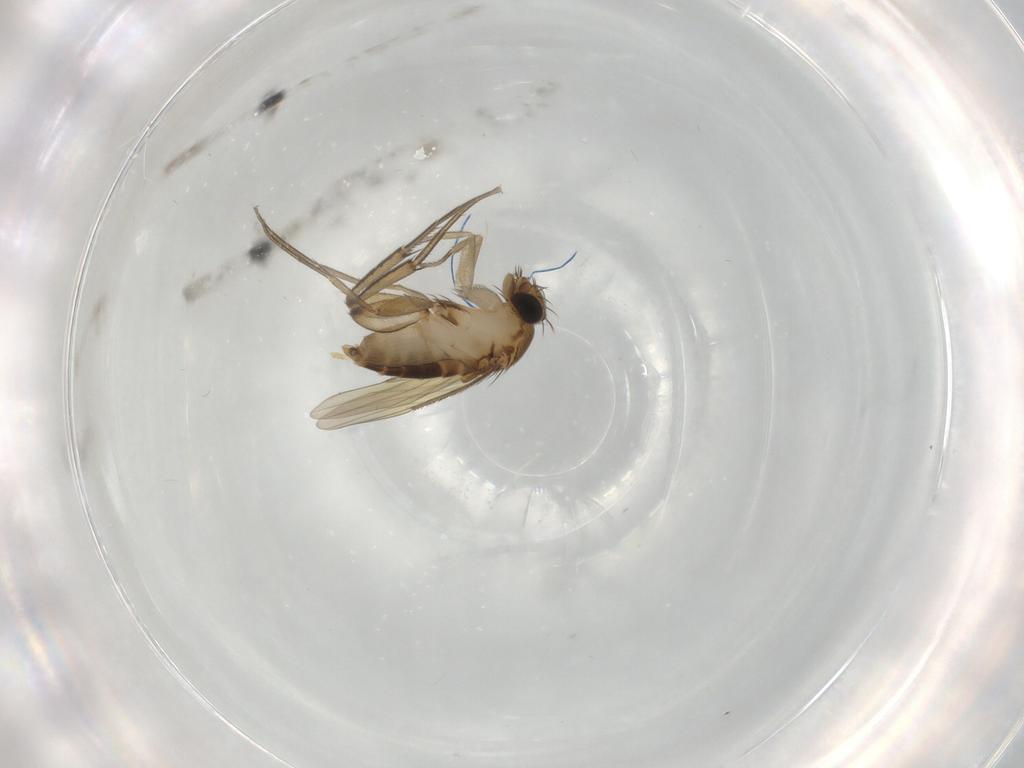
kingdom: Animalia
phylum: Arthropoda
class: Insecta
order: Diptera
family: Phoridae
